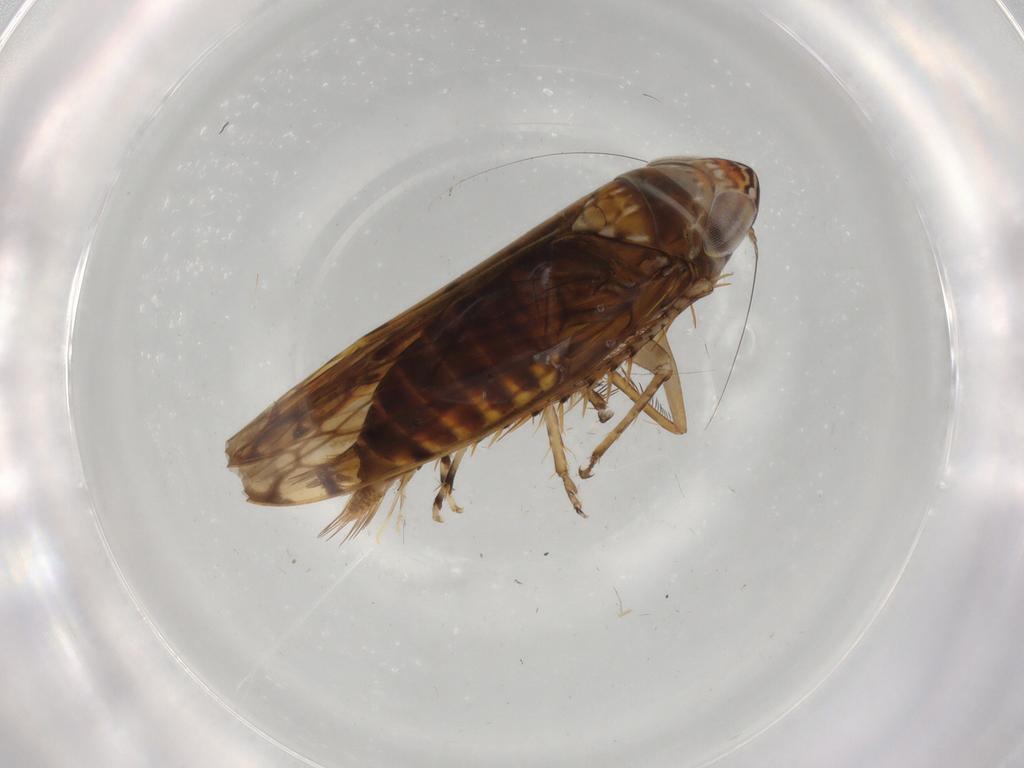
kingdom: Animalia
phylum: Arthropoda
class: Insecta
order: Hemiptera
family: Cicadellidae
